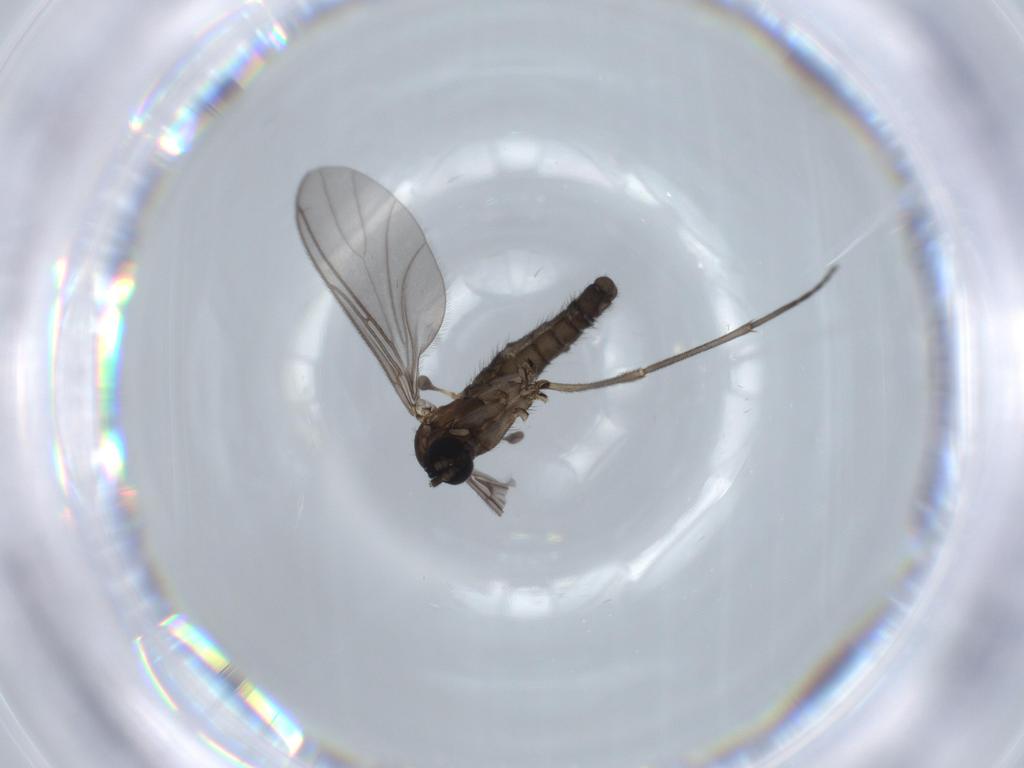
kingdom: Animalia
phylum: Arthropoda
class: Insecta
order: Diptera
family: Sciaridae
